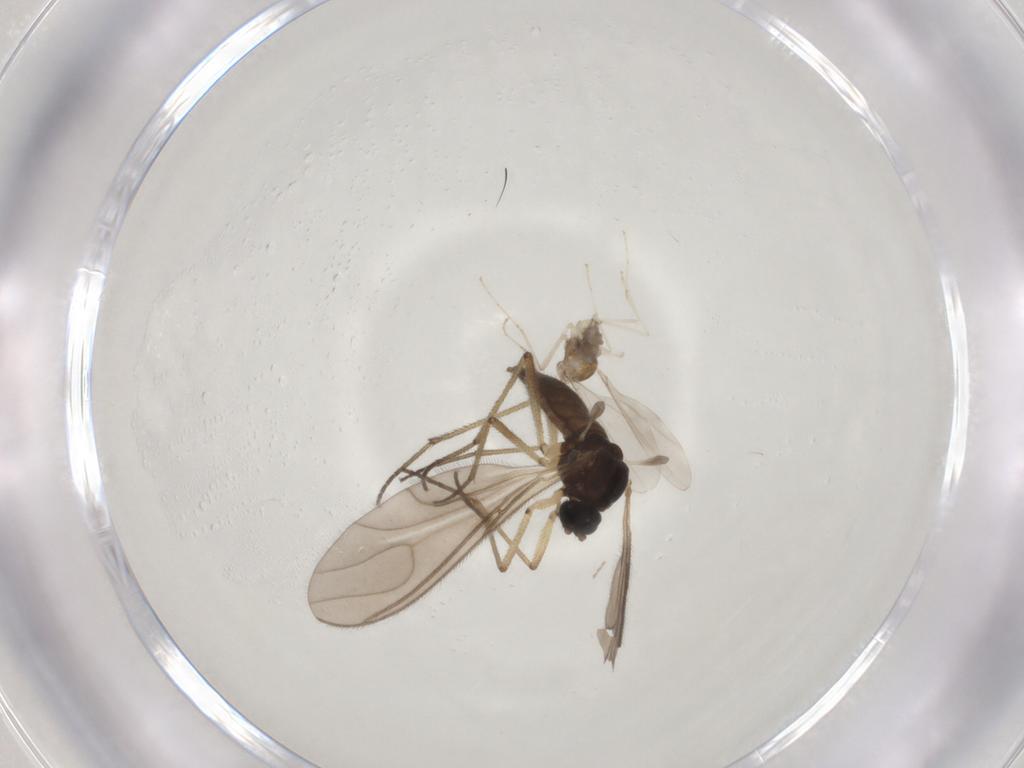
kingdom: Animalia
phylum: Arthropoda
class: Insecta
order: Diptera
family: Sciaridae
